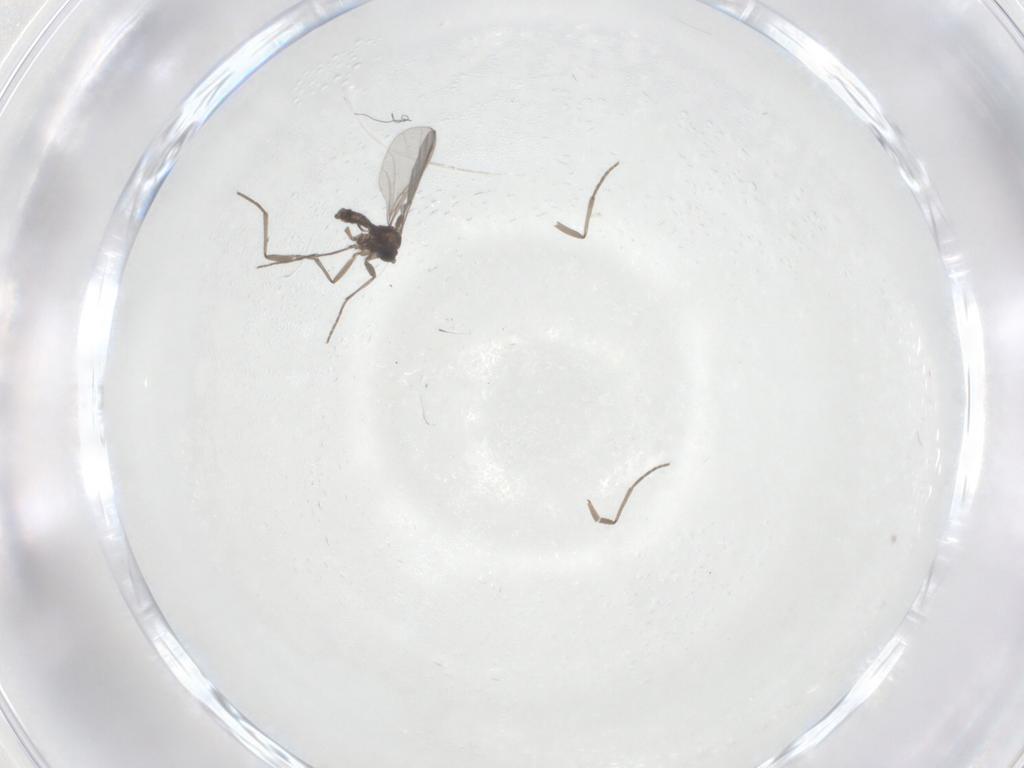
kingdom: Animalia
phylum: Arthropoda
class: Insecta
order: Diptera
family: Cecidomyiidae
